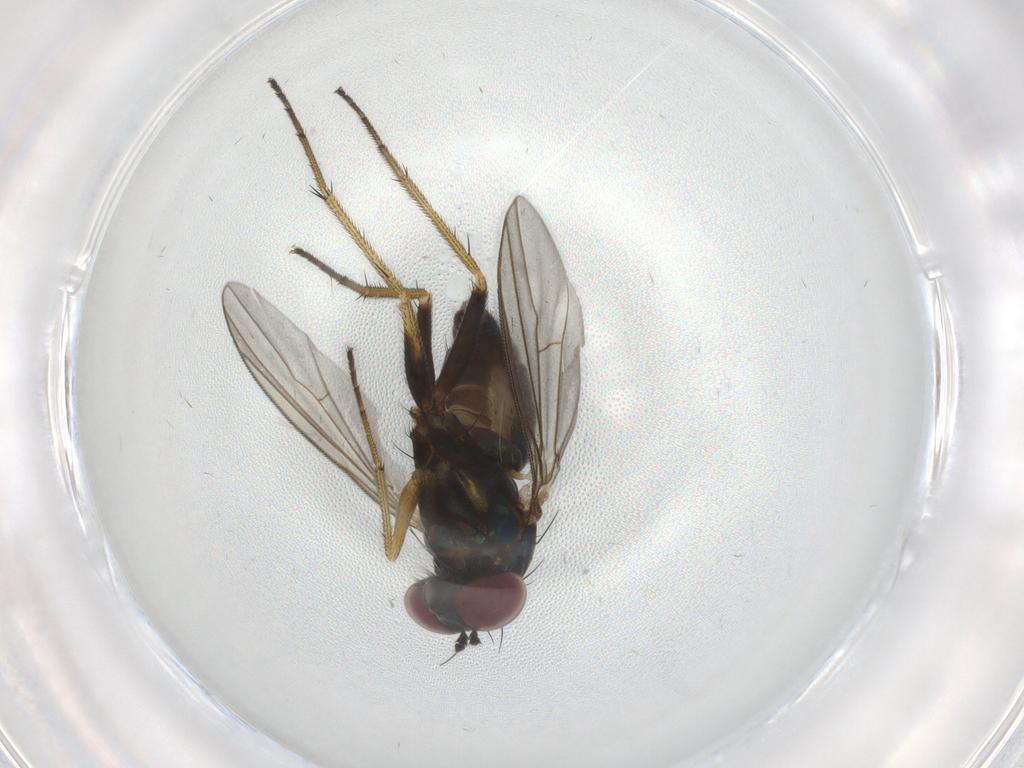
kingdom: Animalia
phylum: Arthropoda
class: Insecta
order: Diptera
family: Dolichopodidae
